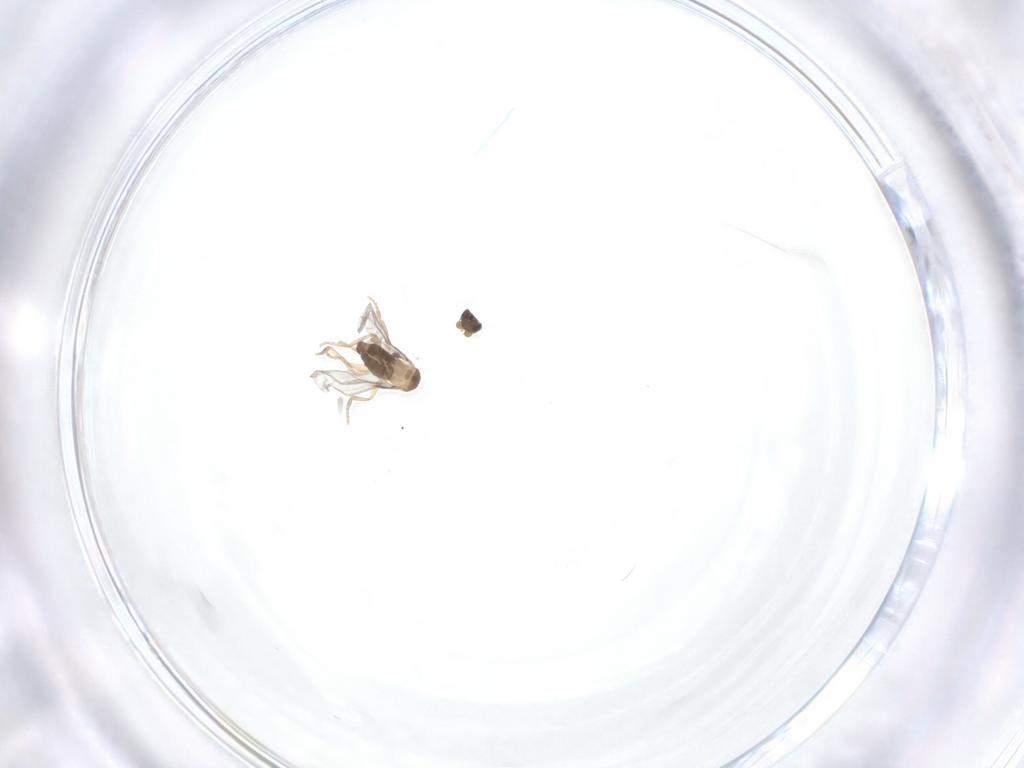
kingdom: Animalia
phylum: Arthropoda
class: Insecta
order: Diptera
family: Phoridae
